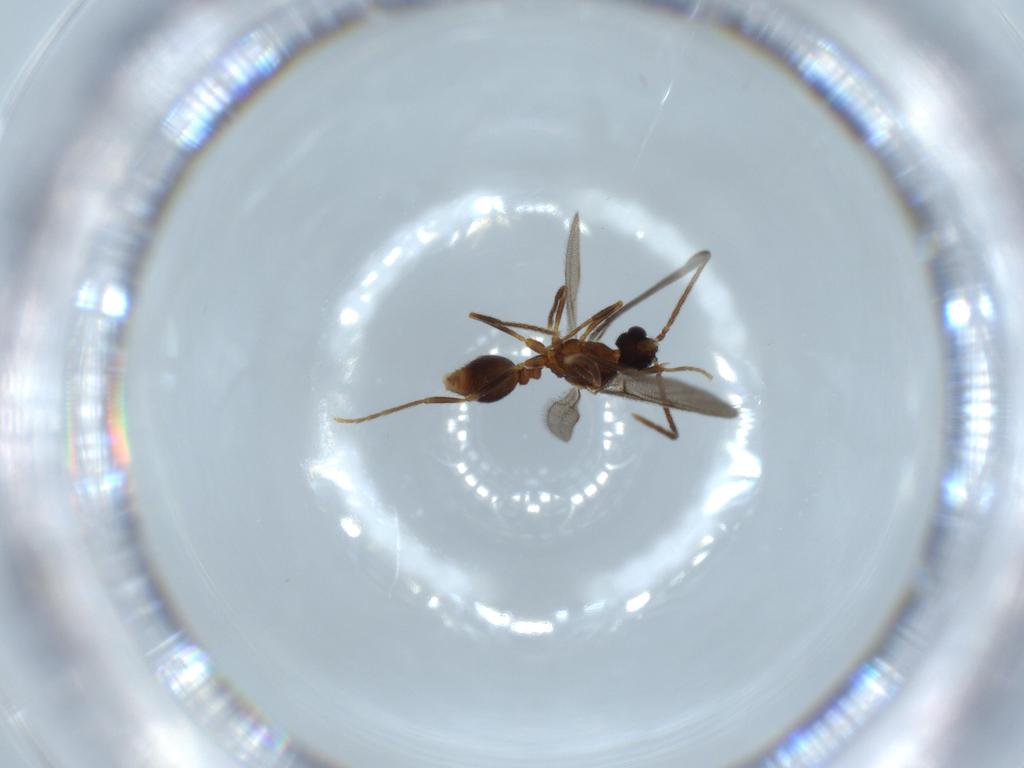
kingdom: Animalia
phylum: Arthropoda
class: Insecta
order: Hymenoptera
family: Formicidae
